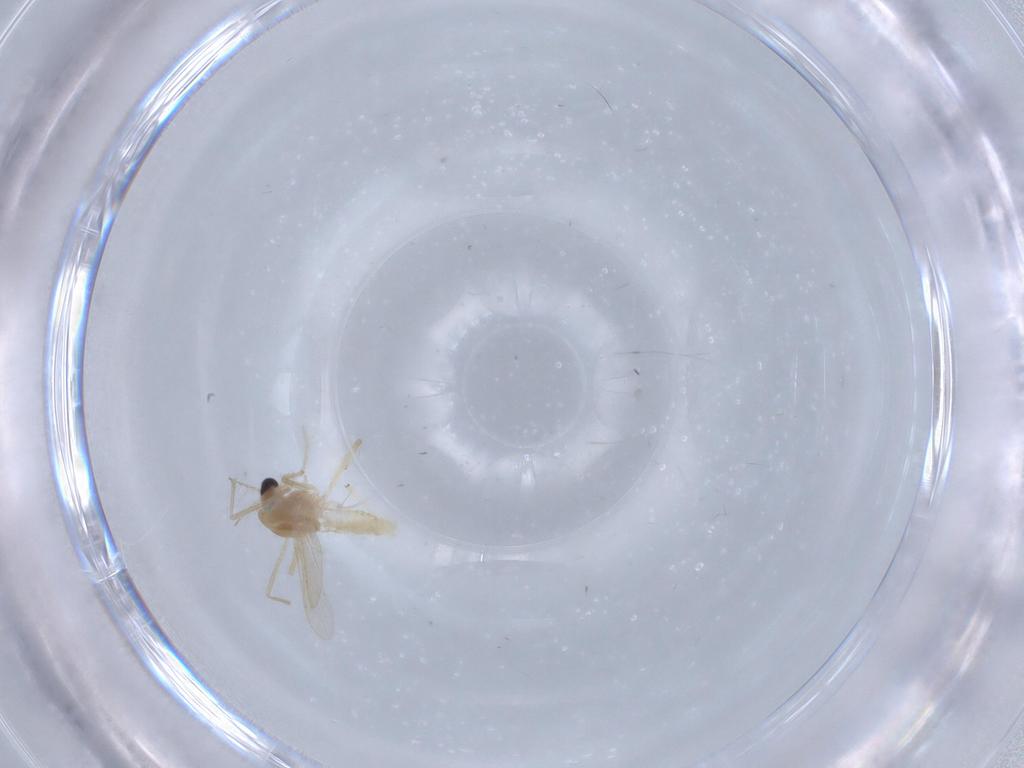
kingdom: Animalia
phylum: Arthropoda
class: Insecta
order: Diptera
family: Chironomidae
